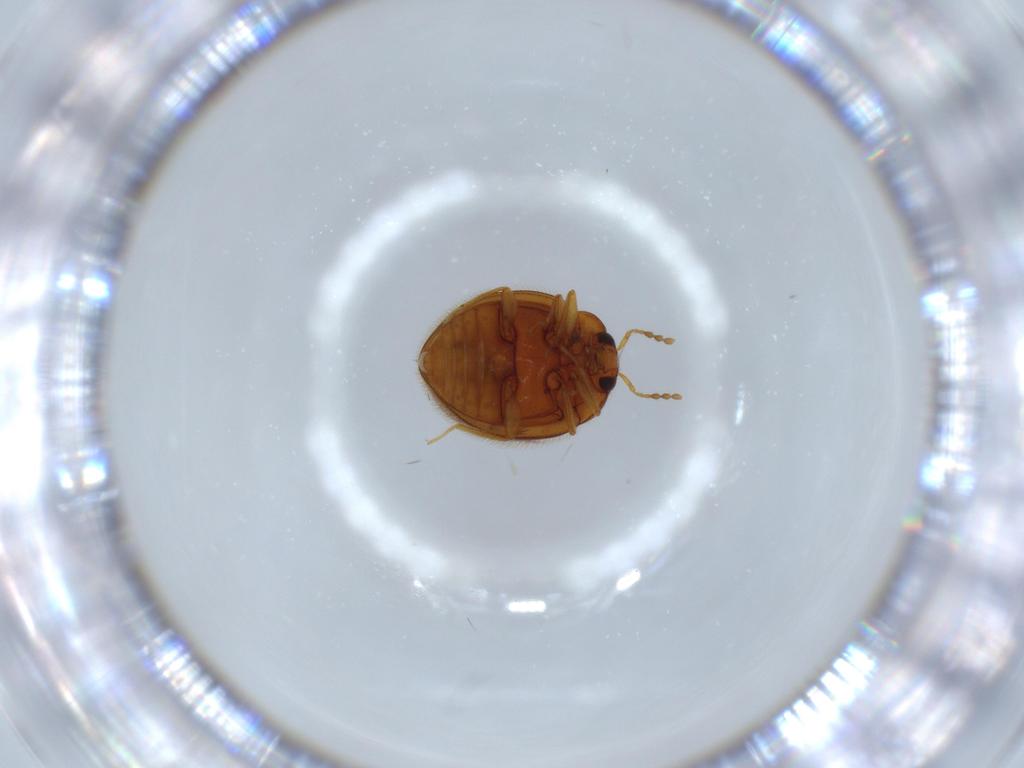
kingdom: Animalia
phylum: Arthropoda
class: Insecta
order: Coleoptera
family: Anamorphidae
